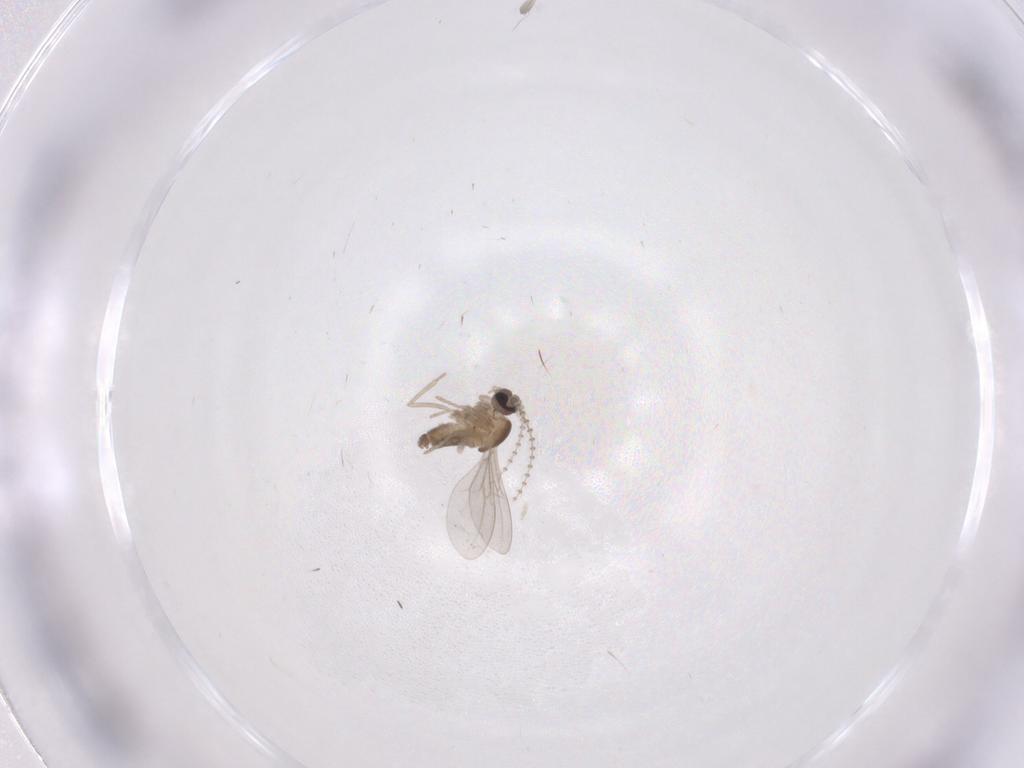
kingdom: Animalia
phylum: Arthropoda
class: Insecta
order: Diptera
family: Cecidomyiidae
